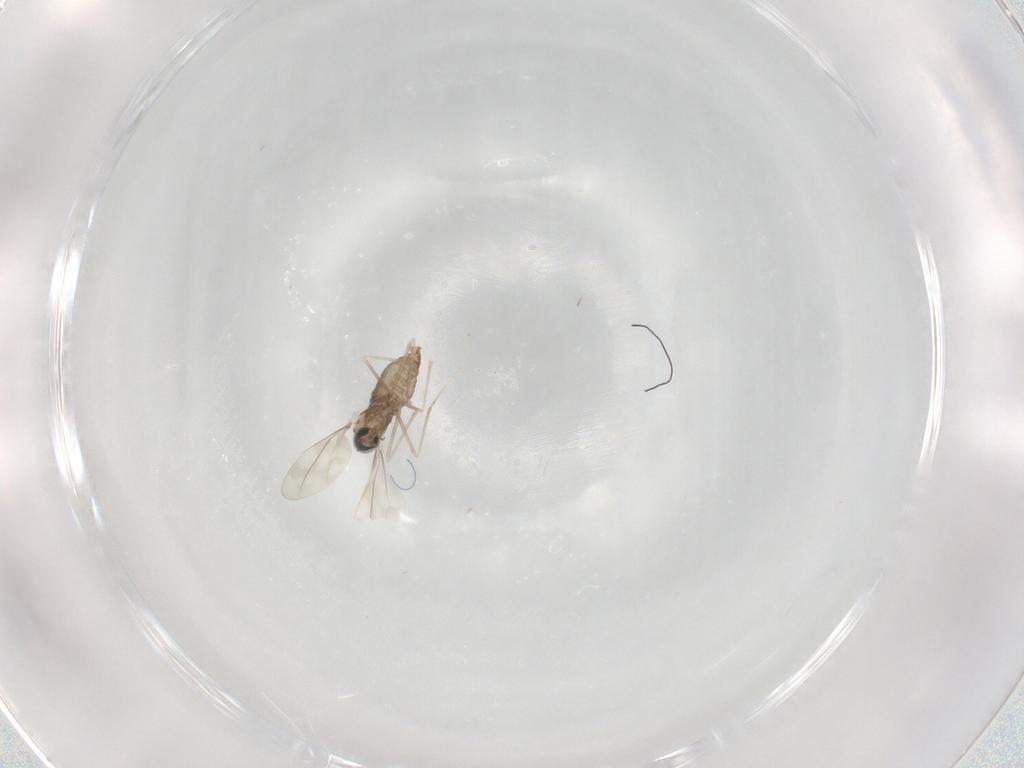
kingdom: Animalia
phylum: Arthropoda
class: Insecta
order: Diptera
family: Cecidomyiidae
